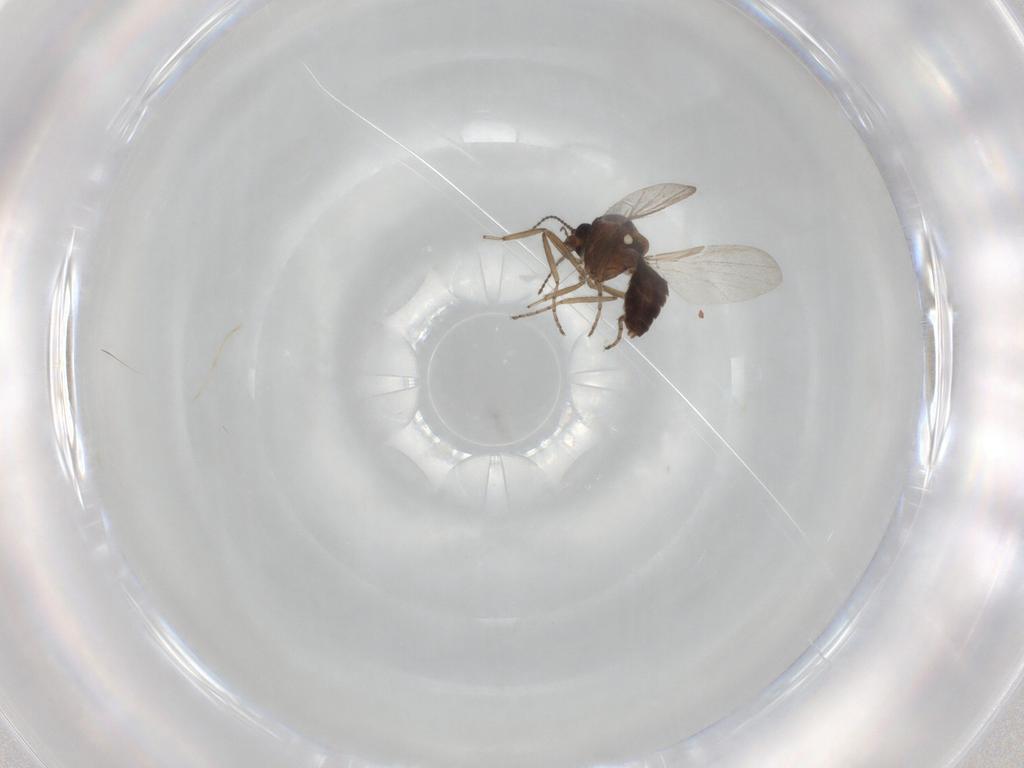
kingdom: Animalia
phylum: Arthropoda
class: Insecta
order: Diptera
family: Ceratopogonidae
